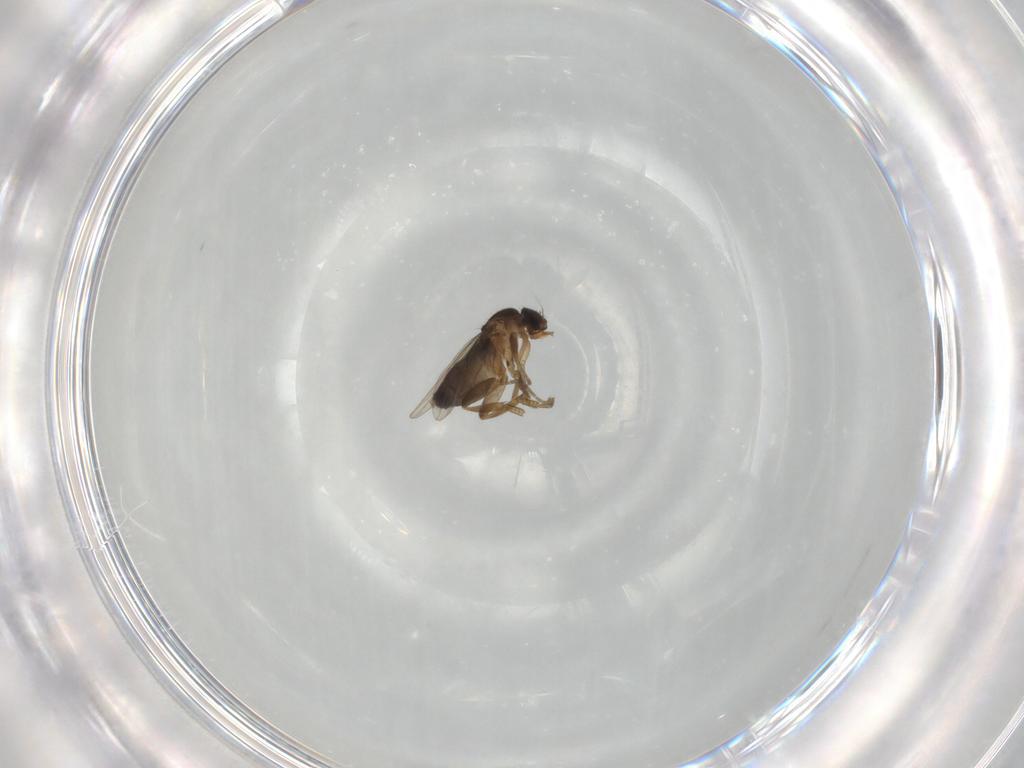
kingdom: Animalia
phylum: Arthropoda
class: Insecta
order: Diptera
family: Phoridae
